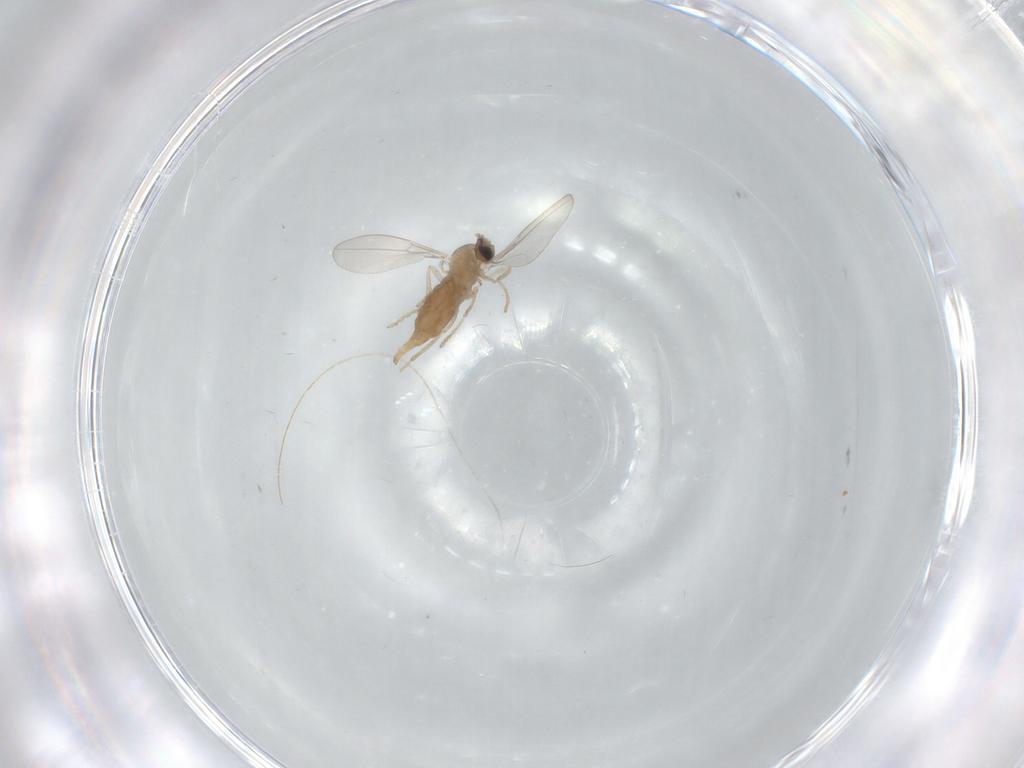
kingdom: Animalia
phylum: Arthropoda
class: Insecta
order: Diptera
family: Cecidomyiidae
